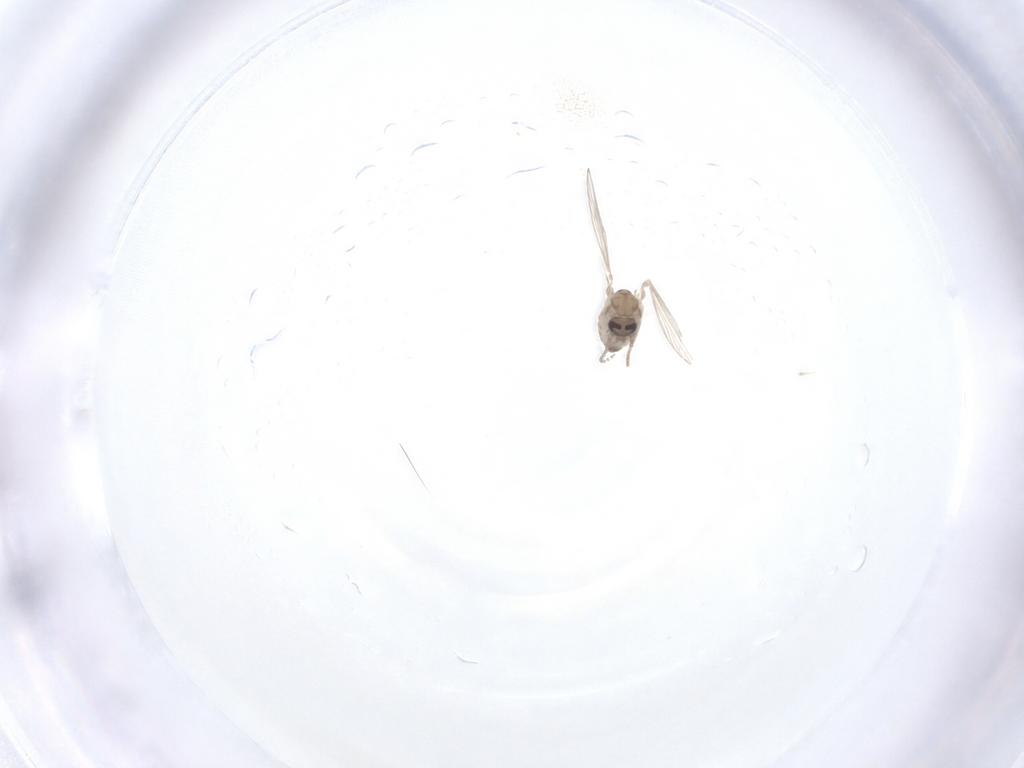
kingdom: Animalia
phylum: Arthropoda
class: Insecta
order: Diptera
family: Psychodidae
